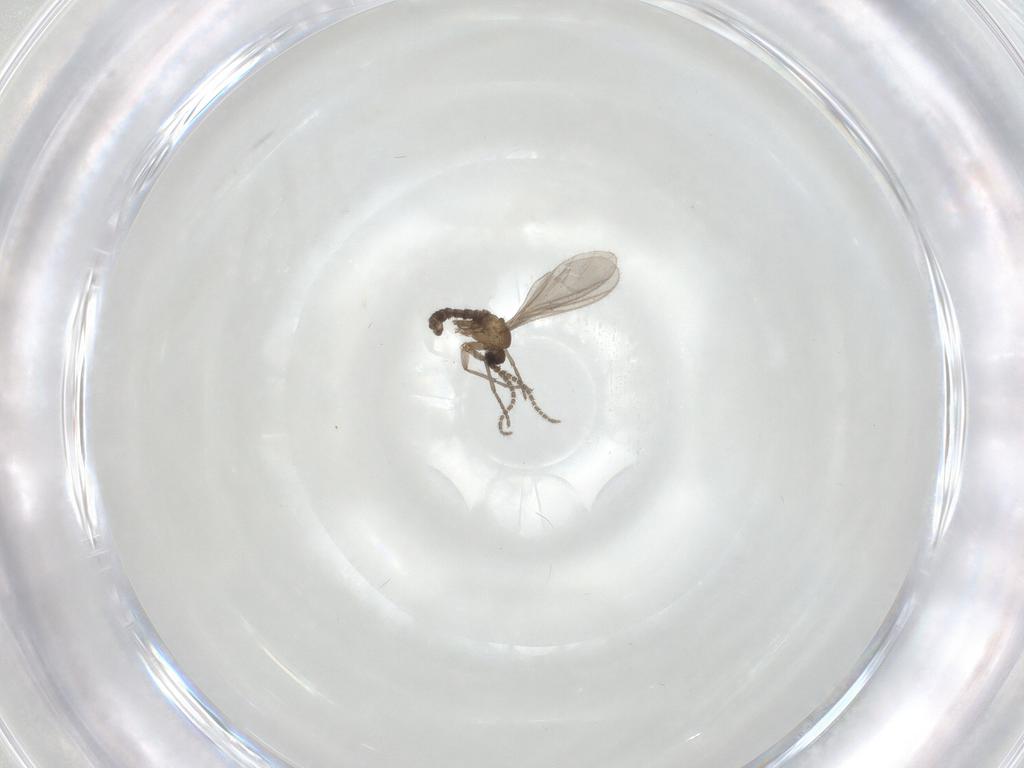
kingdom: Animalia
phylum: Arthropoda
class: Insecta
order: Diptera
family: Sciaridae
